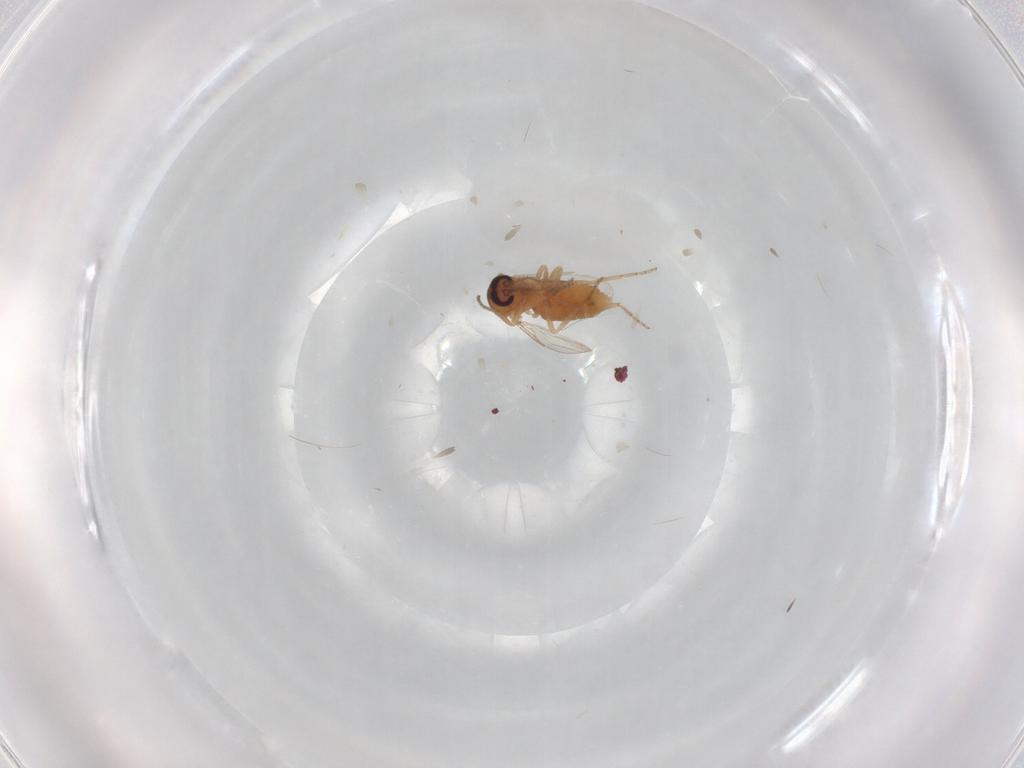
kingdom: Animalia
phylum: Arthropoda
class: Insecta
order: Diptera
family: Ceratopogonidae
